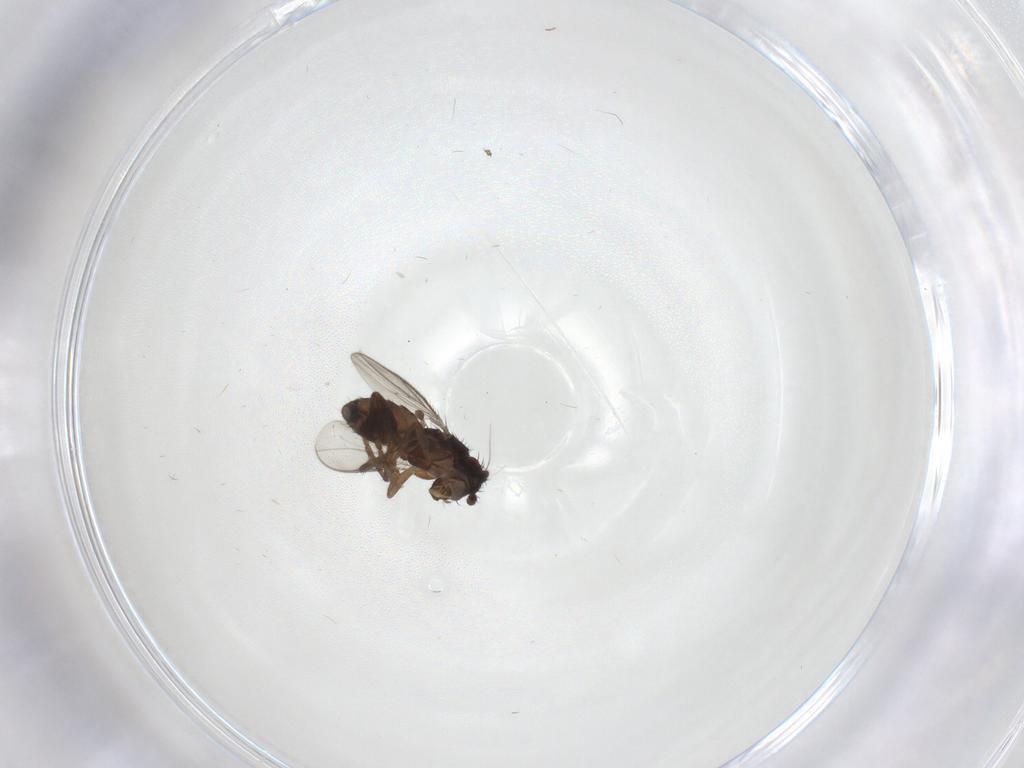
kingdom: Animalia
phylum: Arthropoda
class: Insecta
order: Diptera
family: Sphaeroceridae
